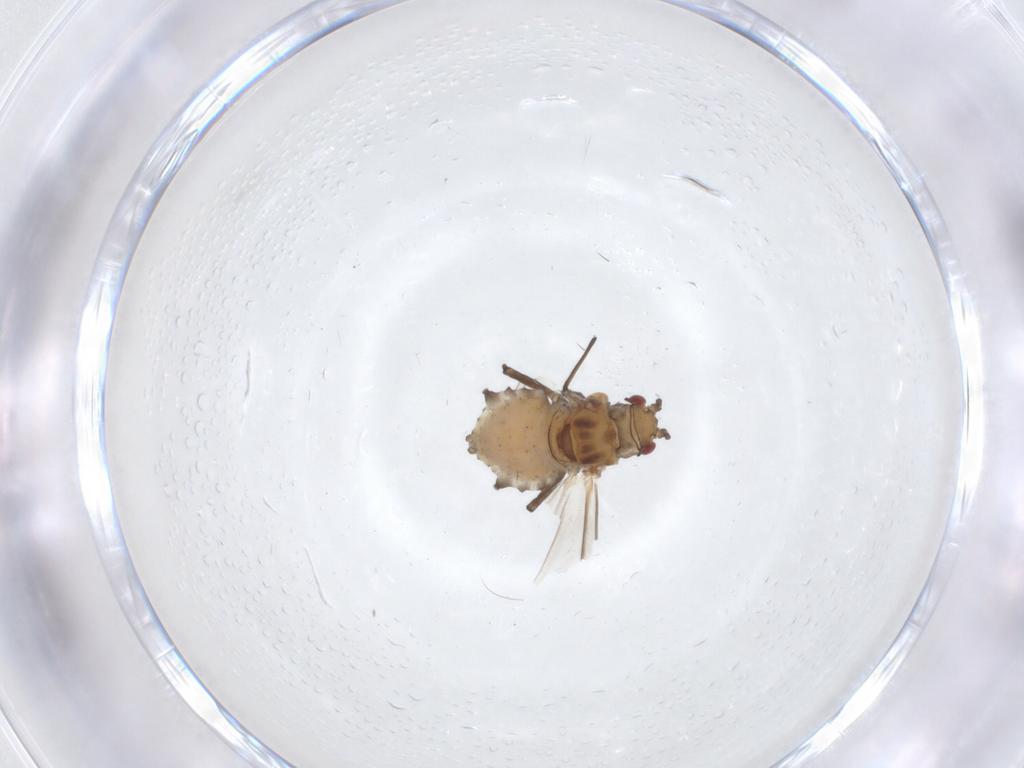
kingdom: Animalia
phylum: Arthropoda
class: Insecta
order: Hemiptera
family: Aphididae
